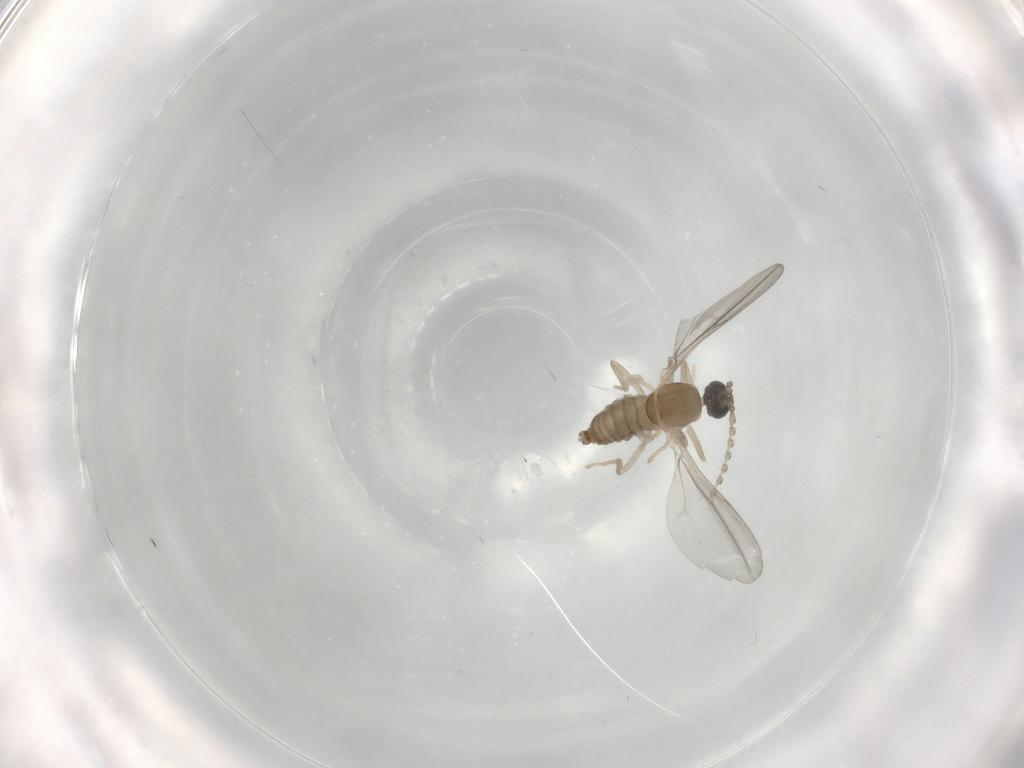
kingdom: Animalia
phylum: Arthropoda
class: Insecta
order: Diptera
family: Cecidomyiidae
